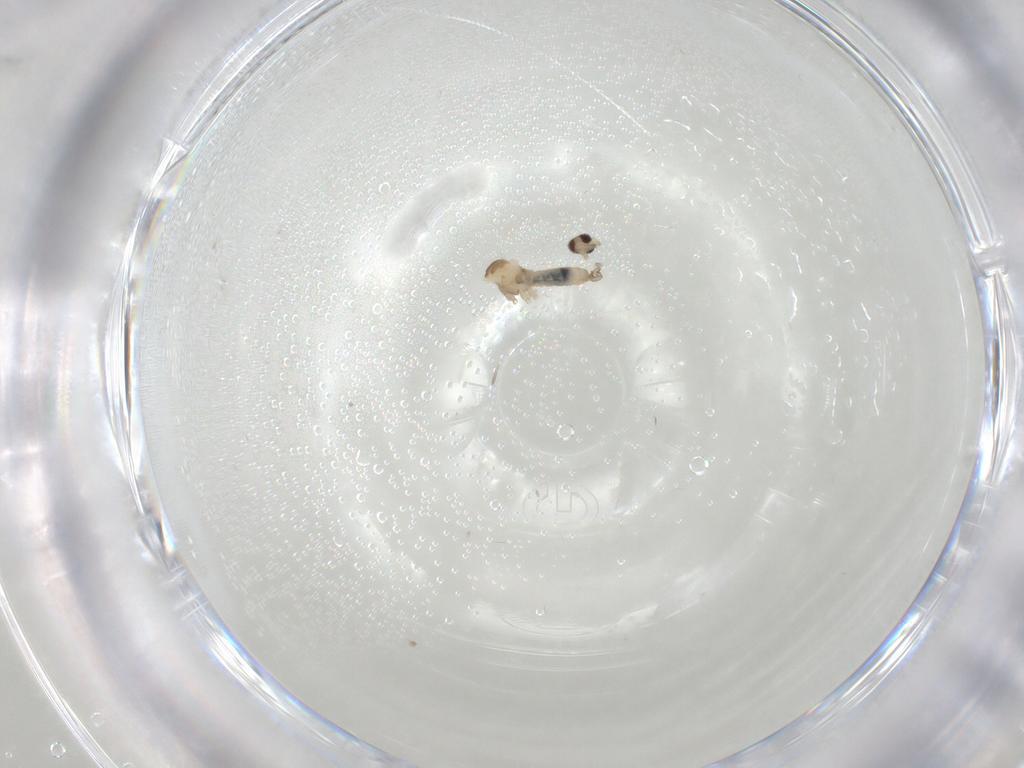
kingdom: Animalia
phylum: Arthropoda
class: Insecta
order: Diptera
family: Cecidomyiidae
